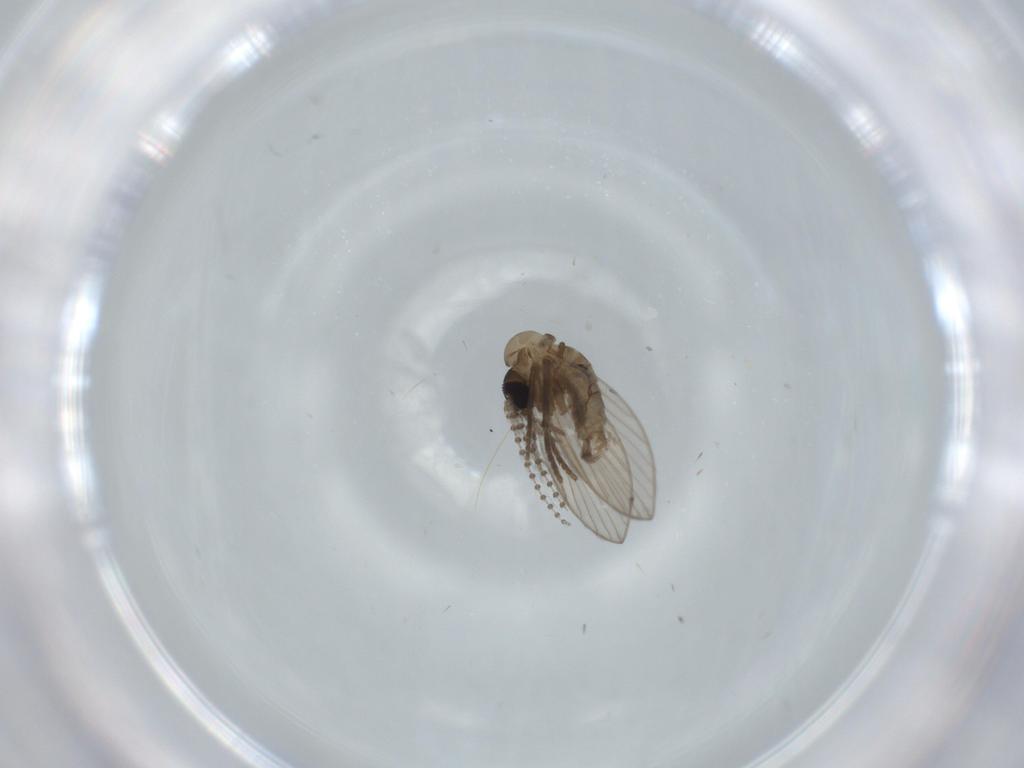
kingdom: Animalia
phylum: Arthropoda
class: Insecta
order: Diptera
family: Psychodidae
